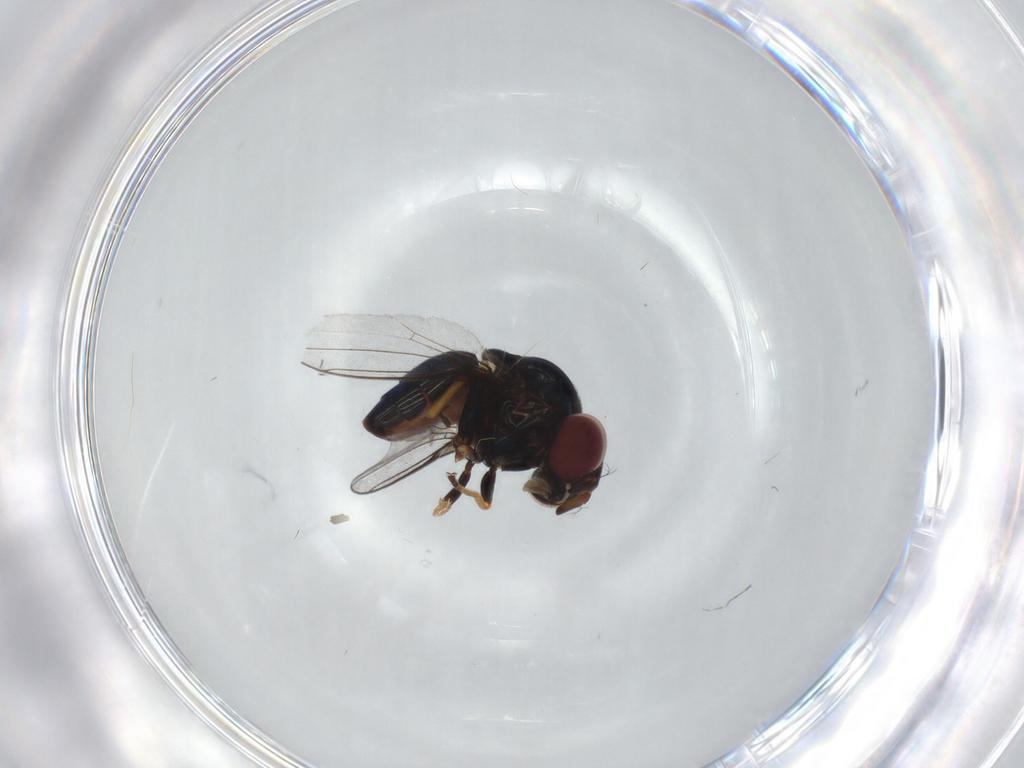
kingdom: Animalia
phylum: Arthropoda
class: Insecta
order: Diptera
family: Chloropidae
